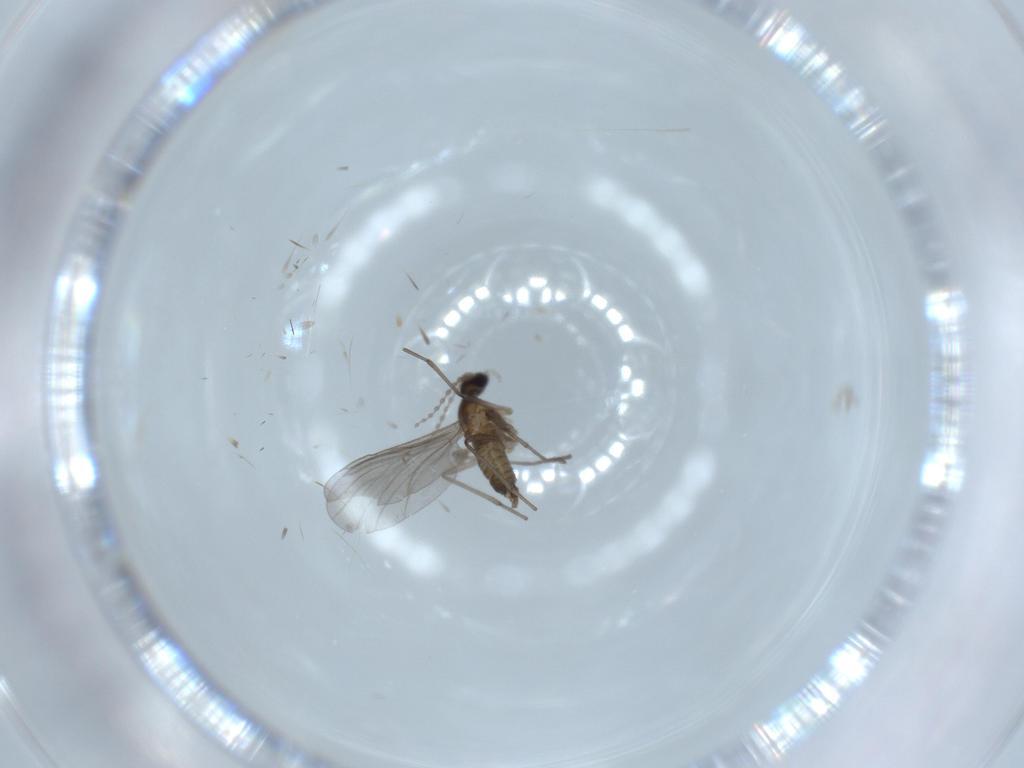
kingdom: Animalia
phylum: Arthropoda
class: Insecta
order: Diptera
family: Cecidomyiidae
